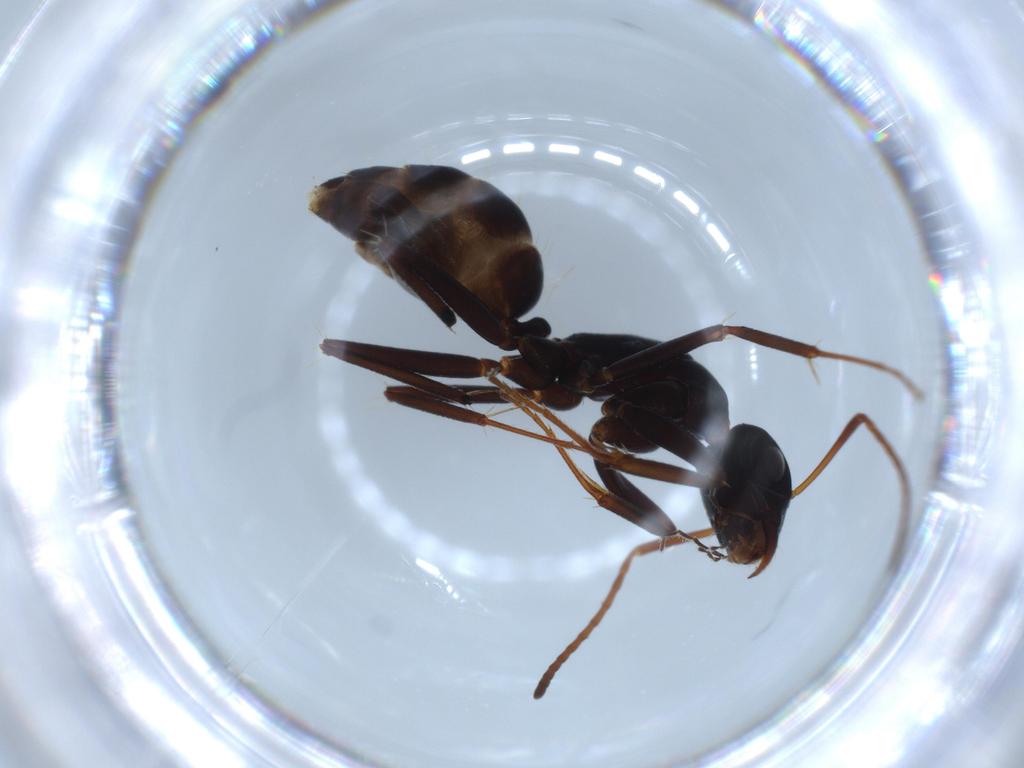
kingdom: Animalia
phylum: Arthropoda
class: Insecta
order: Hymenoptera
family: Formicidae
